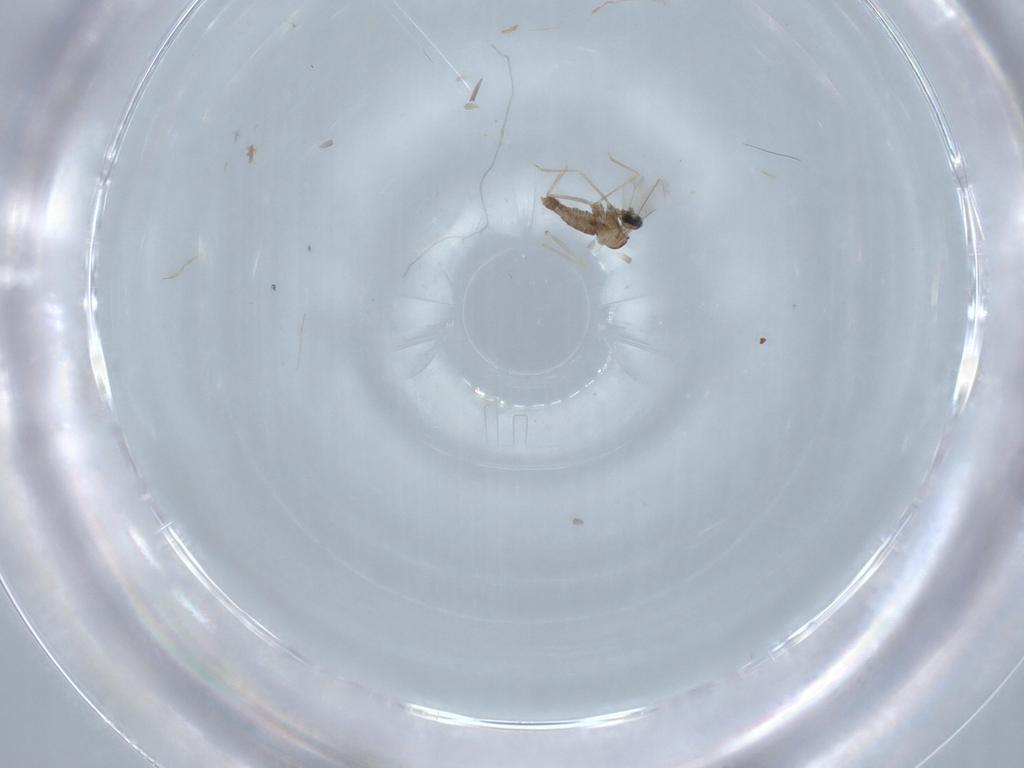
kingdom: Animalia
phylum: Arthropoda
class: Insecta
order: Diptera
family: Cecidomyiidae
